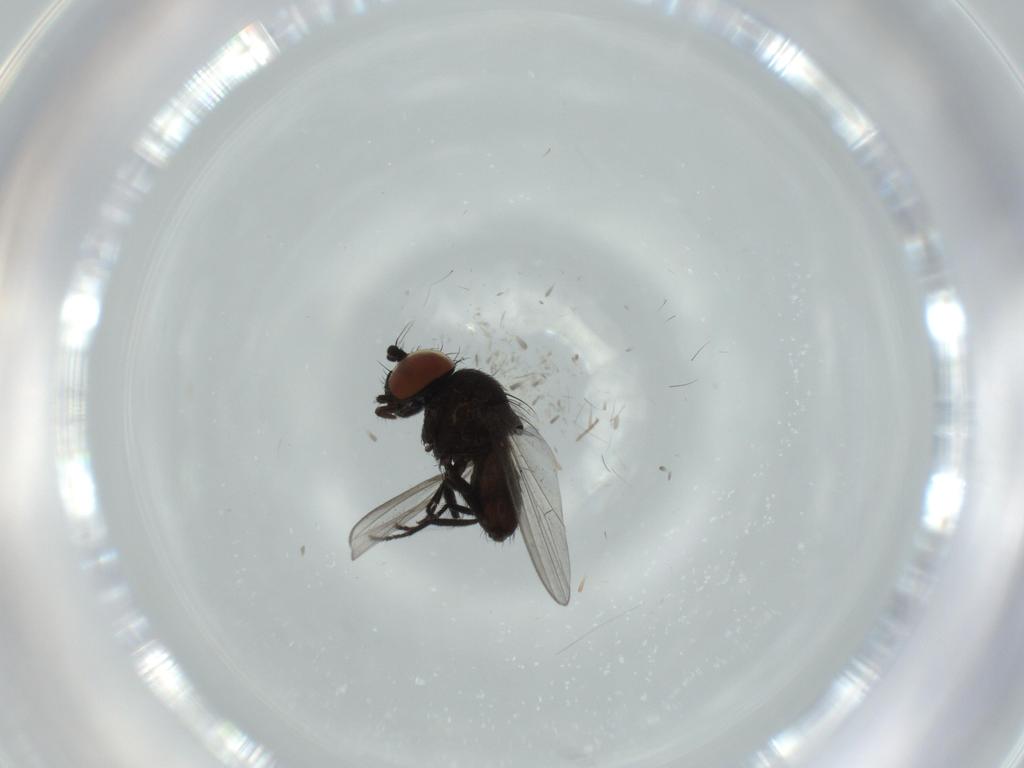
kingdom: Animalia
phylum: Arthropoda
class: Insecta
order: Diptera
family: Milichiidae
